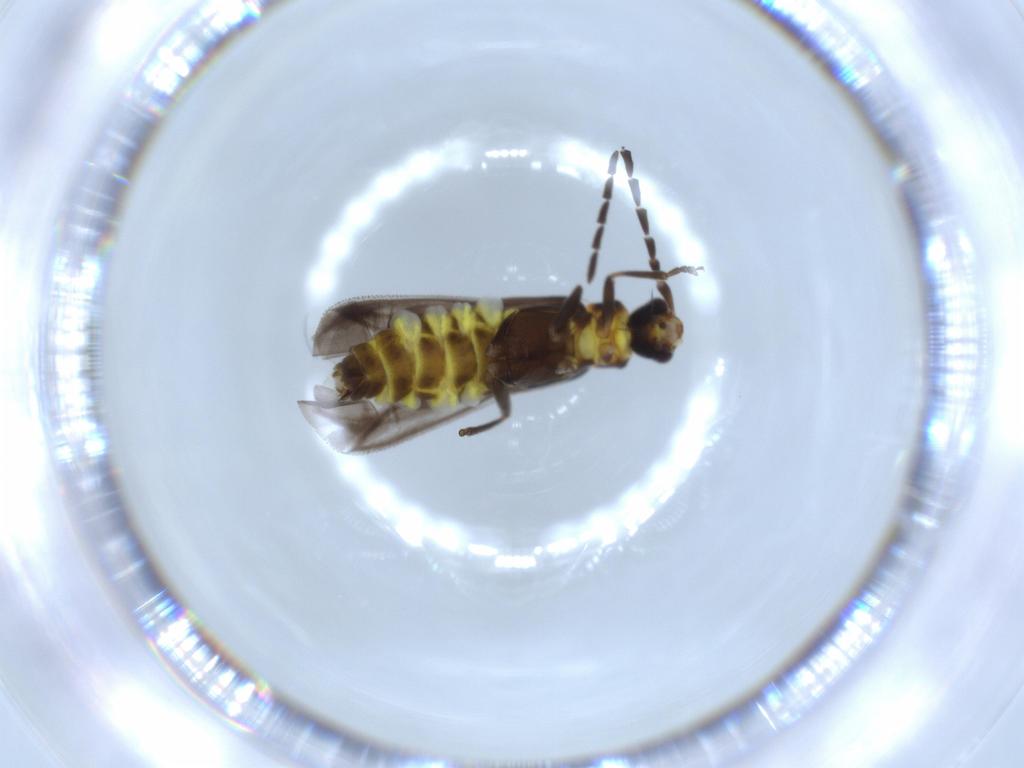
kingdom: Animalia
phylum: Arthropoda
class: Insecta
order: Coleoptera
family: Cantharidae
